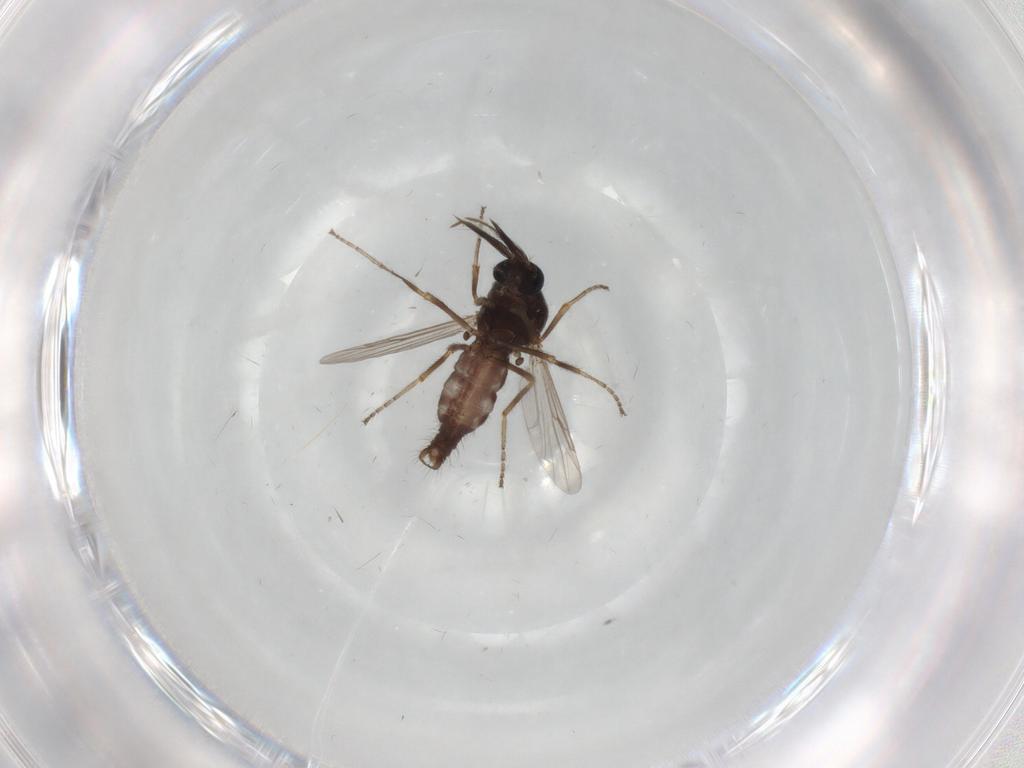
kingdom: Animalia
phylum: Arthropoda
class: Insecta
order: Diptera
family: Ceratopogonidae
